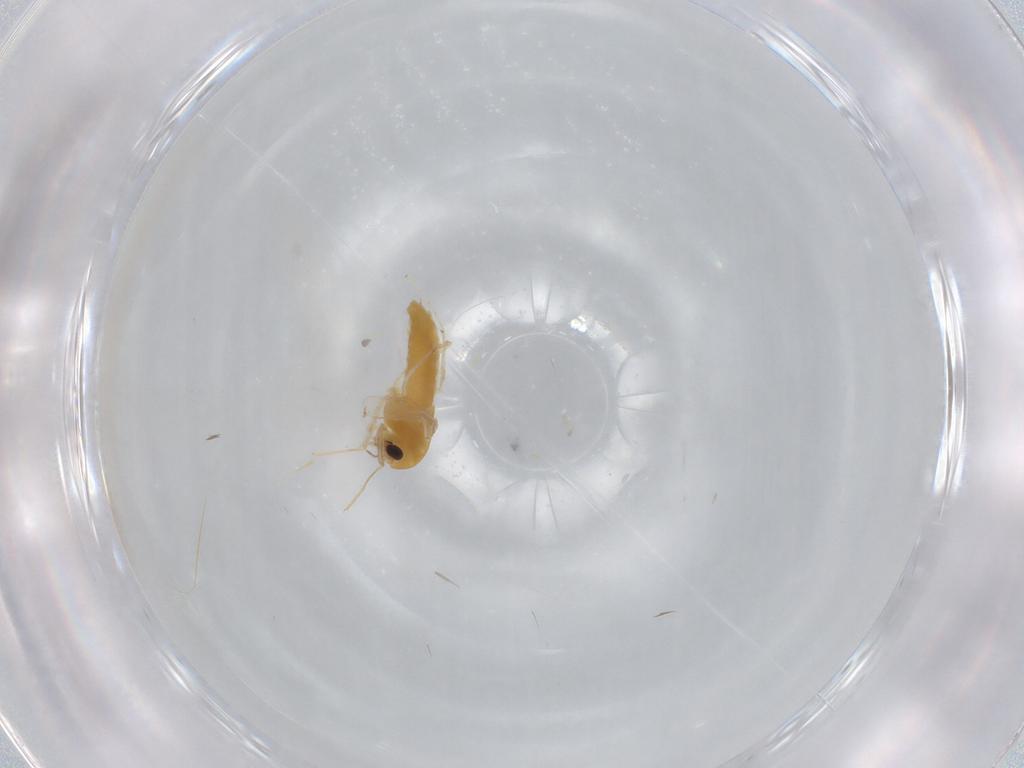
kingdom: Animalia
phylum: Arthropoda
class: Insecta
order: Diptera
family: Chironomidae
